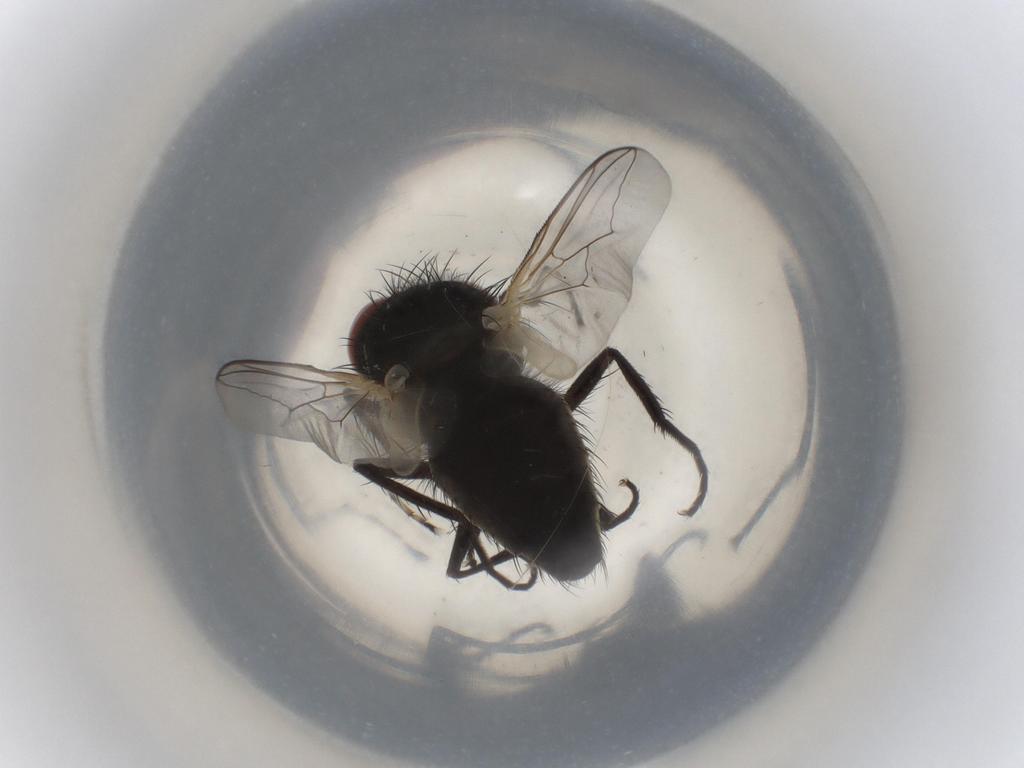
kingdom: Animalia
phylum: Arthropoda
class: Insecta
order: Diptera
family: Sarcophagidae
